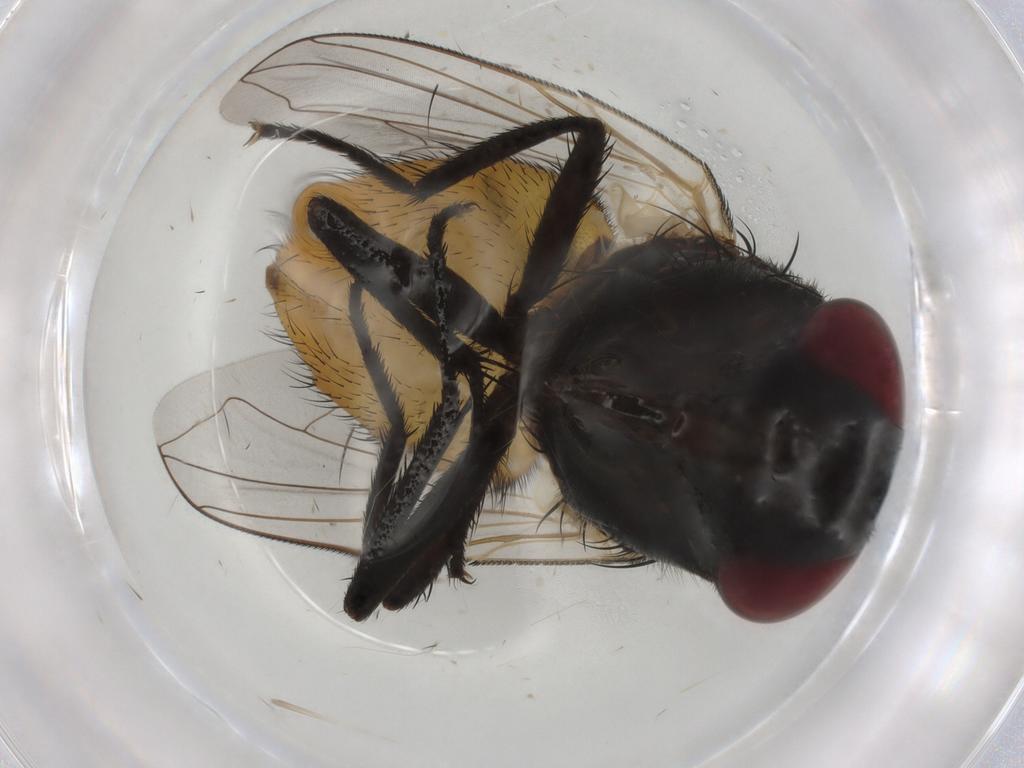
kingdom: Animalia
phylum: Arthropoda
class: Insecta
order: Diptera
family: Muscidae
